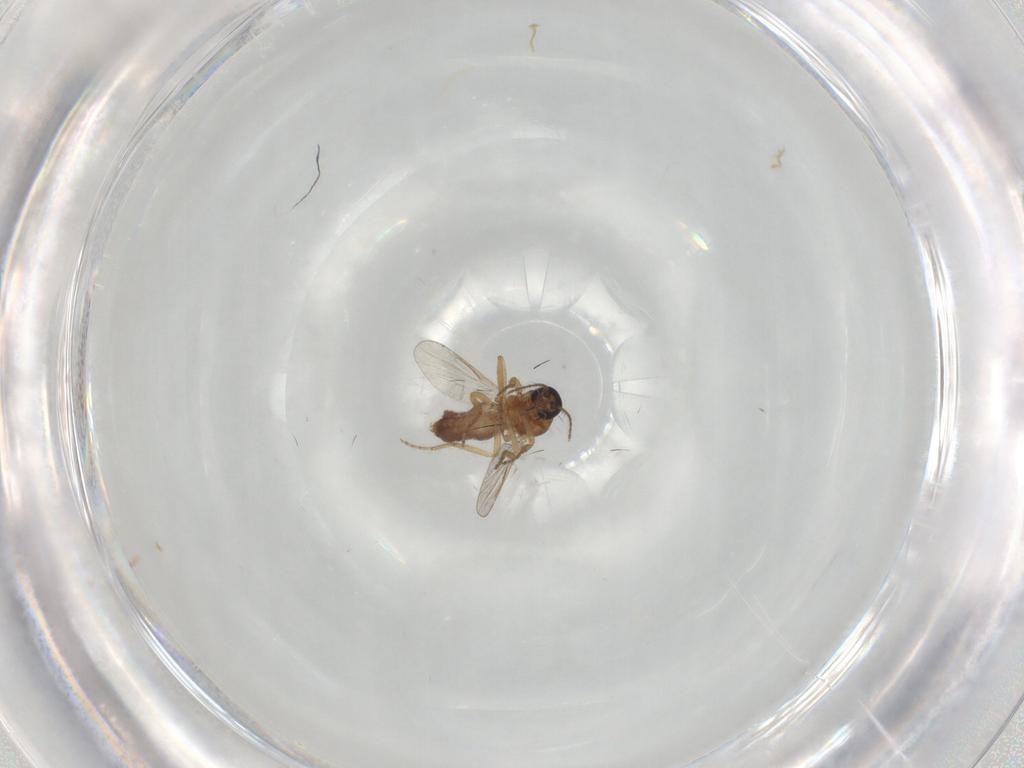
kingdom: Animalia
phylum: Arthropoda
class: Insecta
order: Diptera
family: Ceratopogonidae
